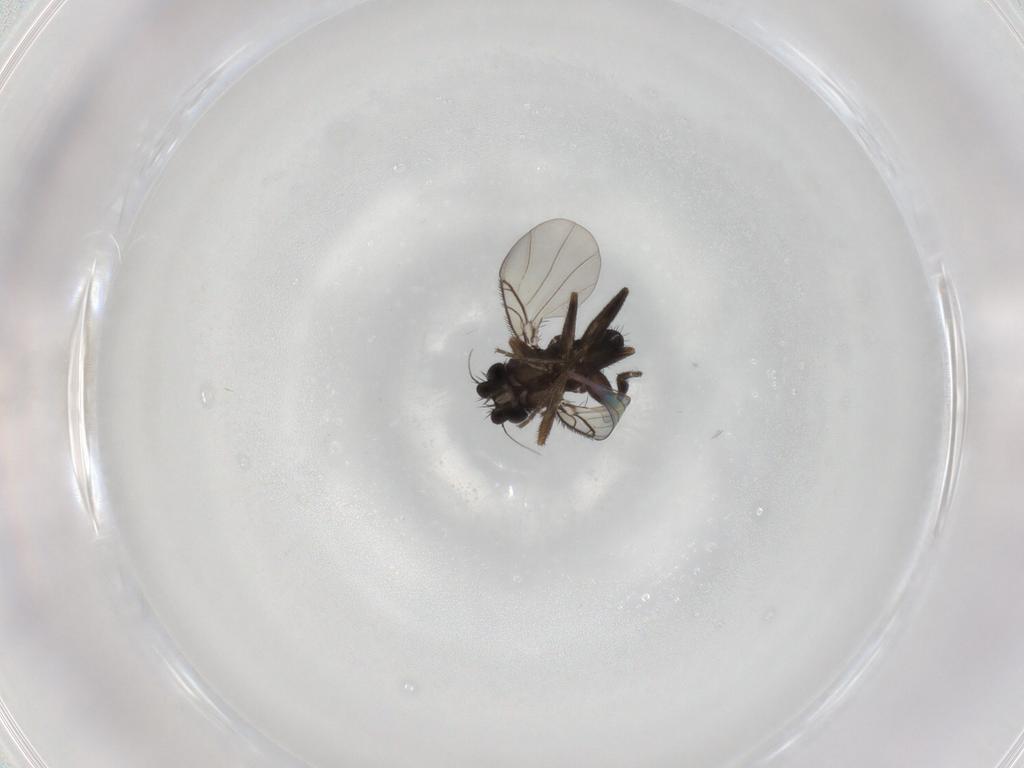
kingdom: Animalia
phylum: Arthropoda
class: Insecta
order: Diptera
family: Phoridae
